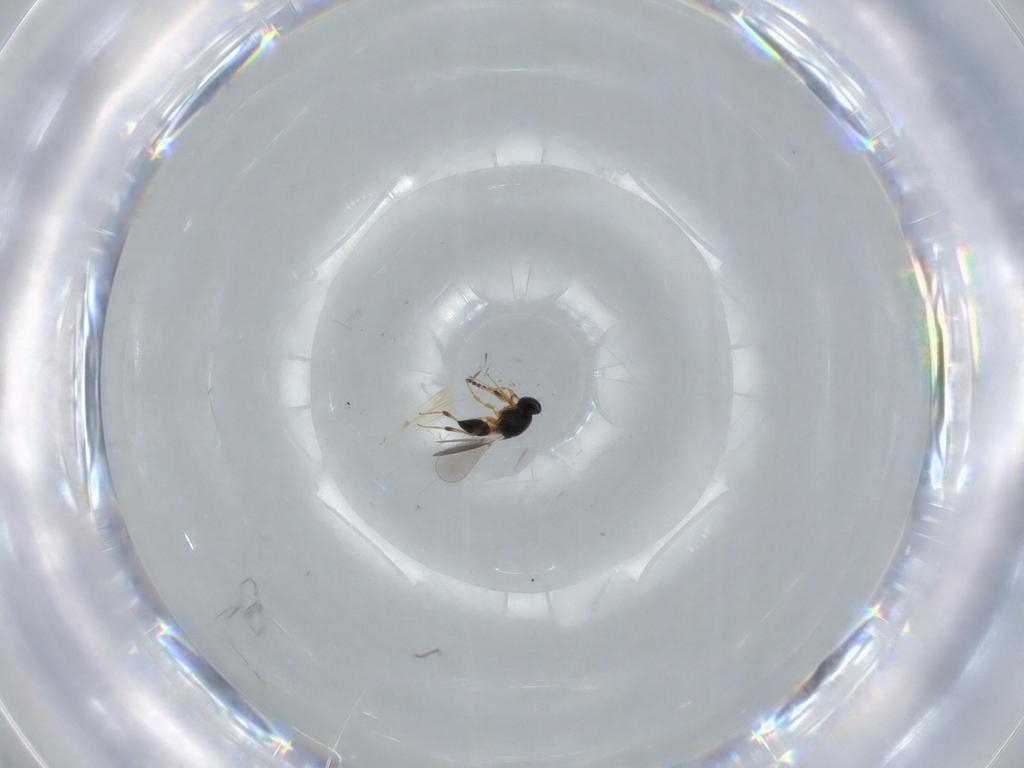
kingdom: Animalia
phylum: Arthropoda
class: Insecta
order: Hymenoptera
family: Platygastridae
